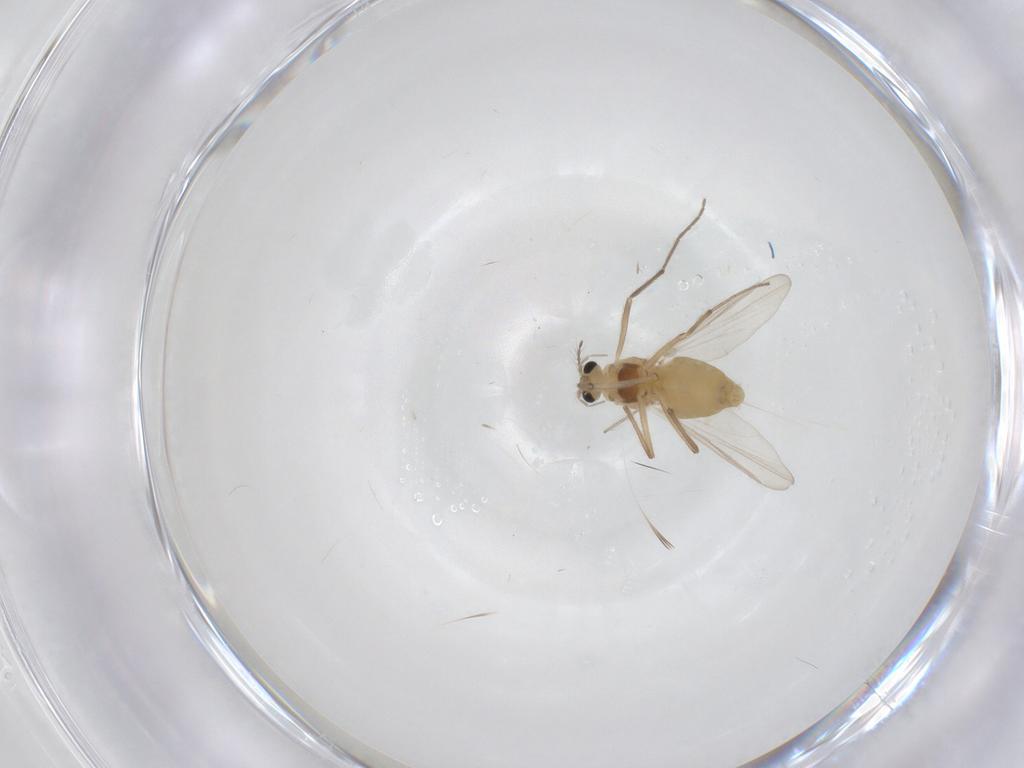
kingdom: Animalia
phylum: Arthropoda
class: Insecta
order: Diptera
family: Chironomidae
